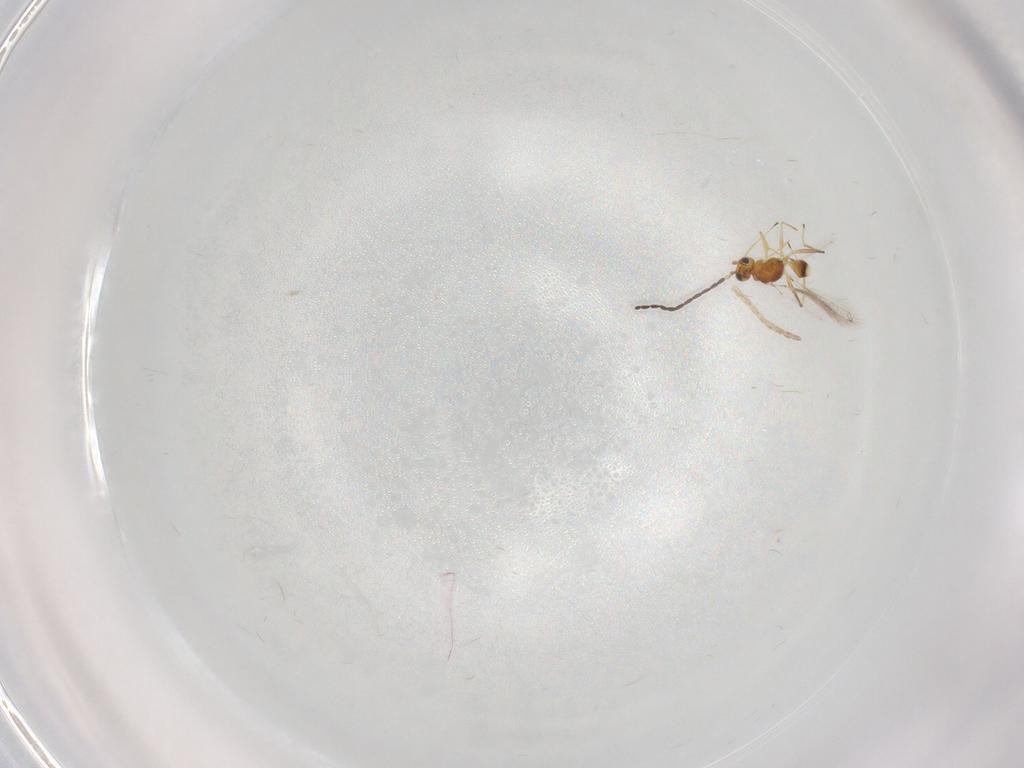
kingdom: Animalia
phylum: Arthropoda
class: Insecta
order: Hymenoptera
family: Mymaridae
